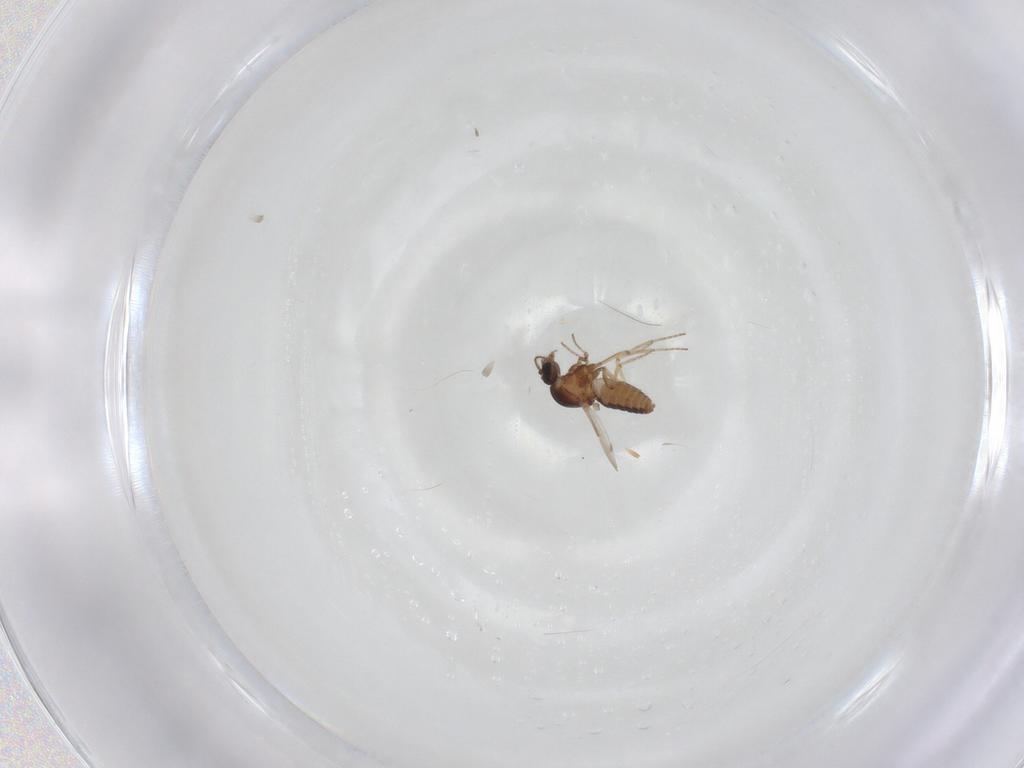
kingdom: Animalia
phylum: Arthropoda
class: Insecta
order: Diptera
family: Ceratopogonidae
